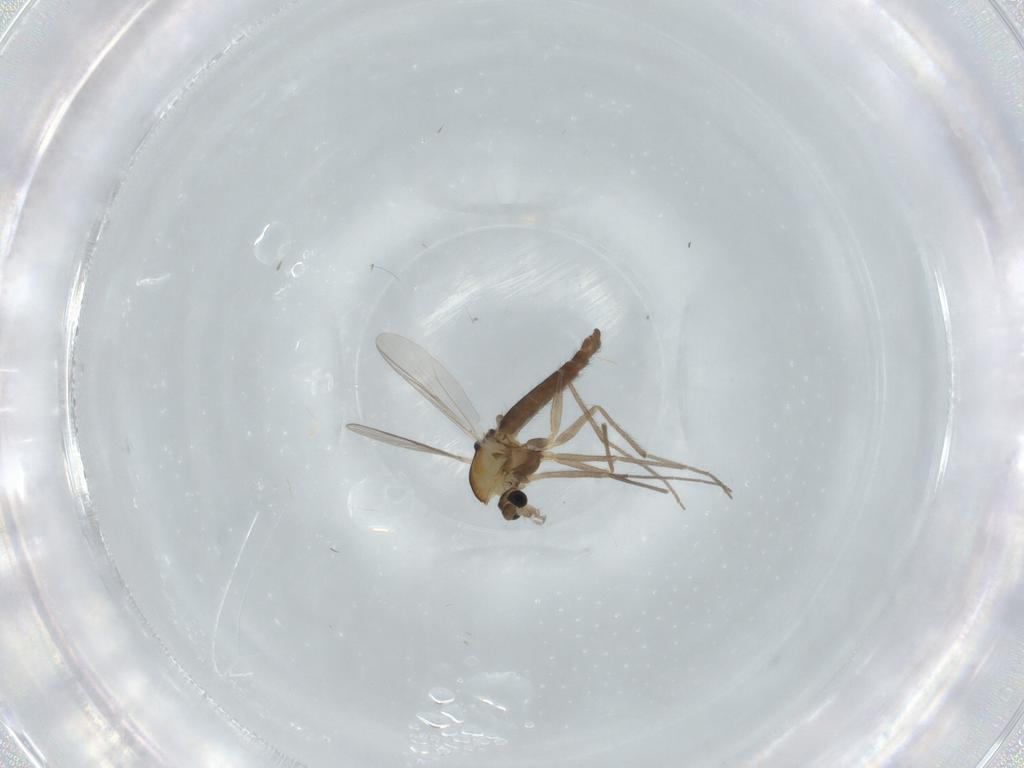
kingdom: Animalia
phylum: Arthropoda
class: Insecta
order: Diptera
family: Chironomidae
